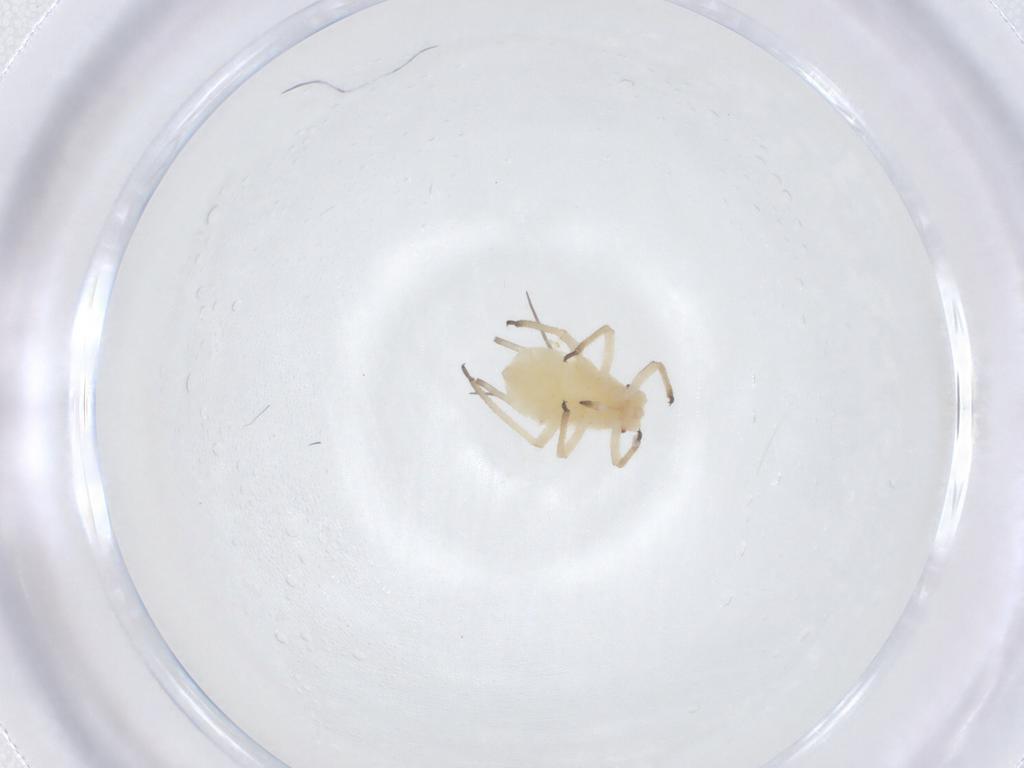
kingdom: Animalia
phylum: Arthropoda
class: Insecta
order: Hemiptera
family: Aphididae
